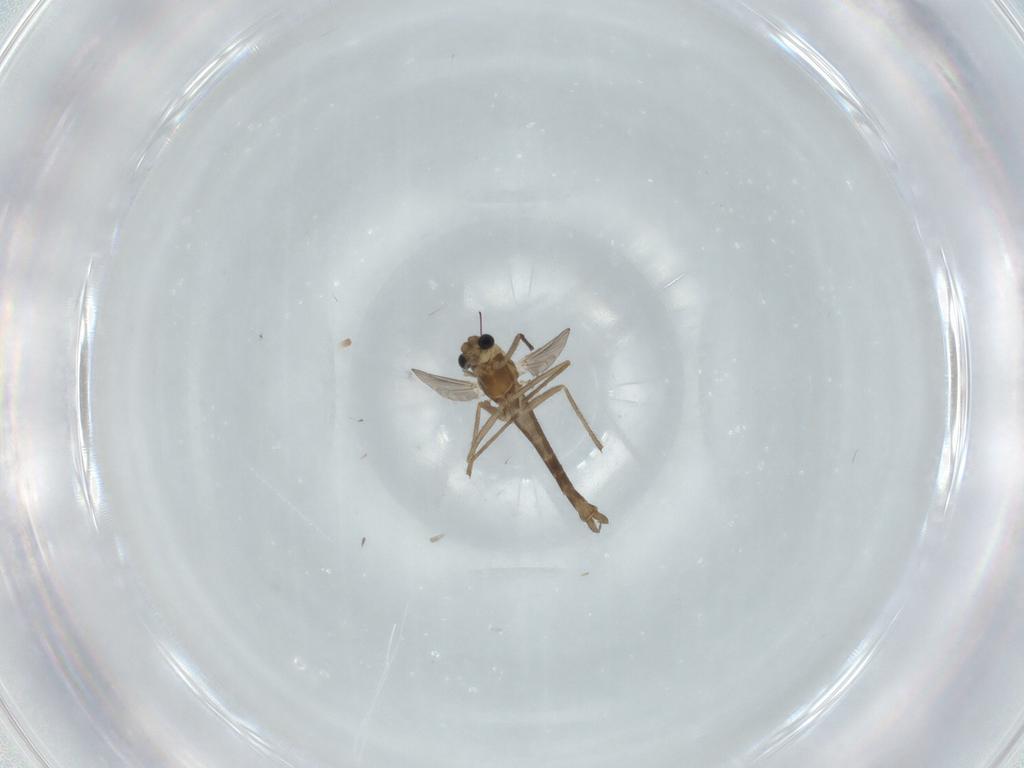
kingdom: Animalia
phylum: Arthropoda
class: Insecta
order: Diptera
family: Chironomidae
